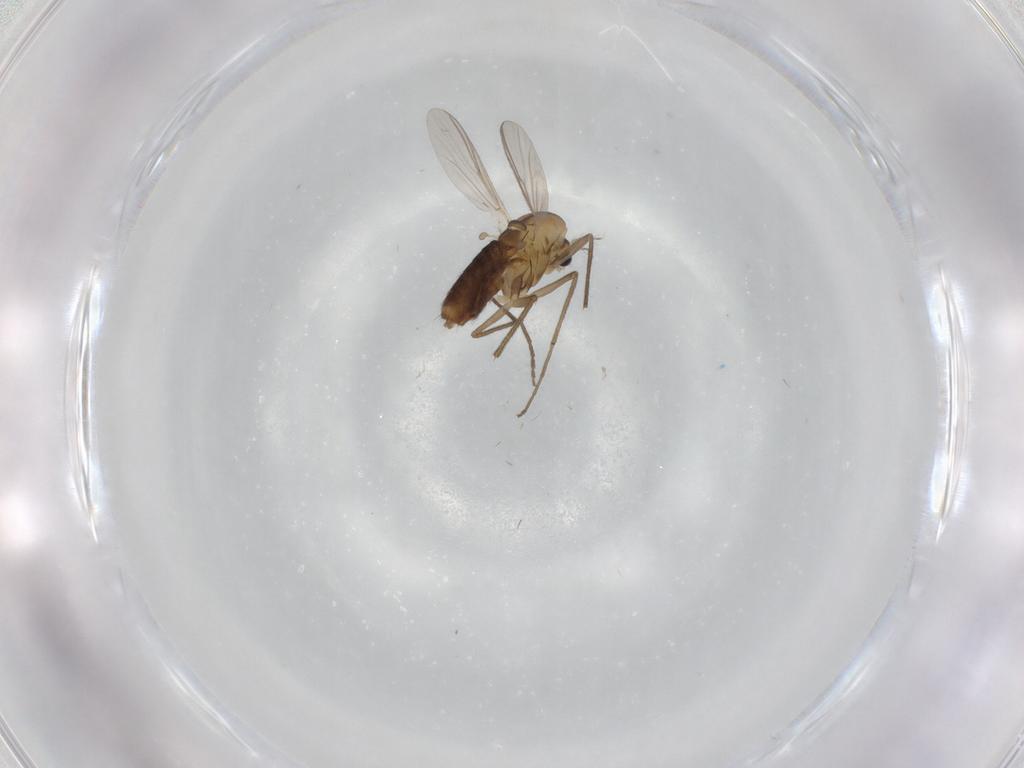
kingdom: Animalia
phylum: Arthropoda
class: Insecta
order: Diptera
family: Chironomidae
